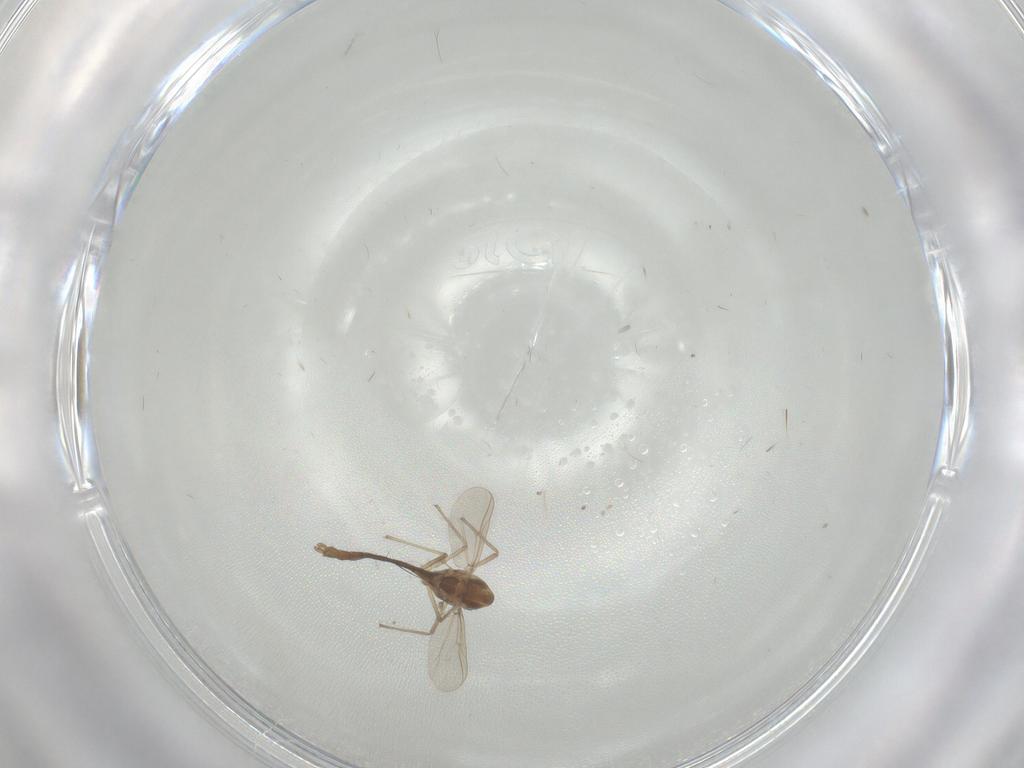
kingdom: Animalia
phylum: Arthropoda
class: Insecta
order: Diptera
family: Chironomidae
